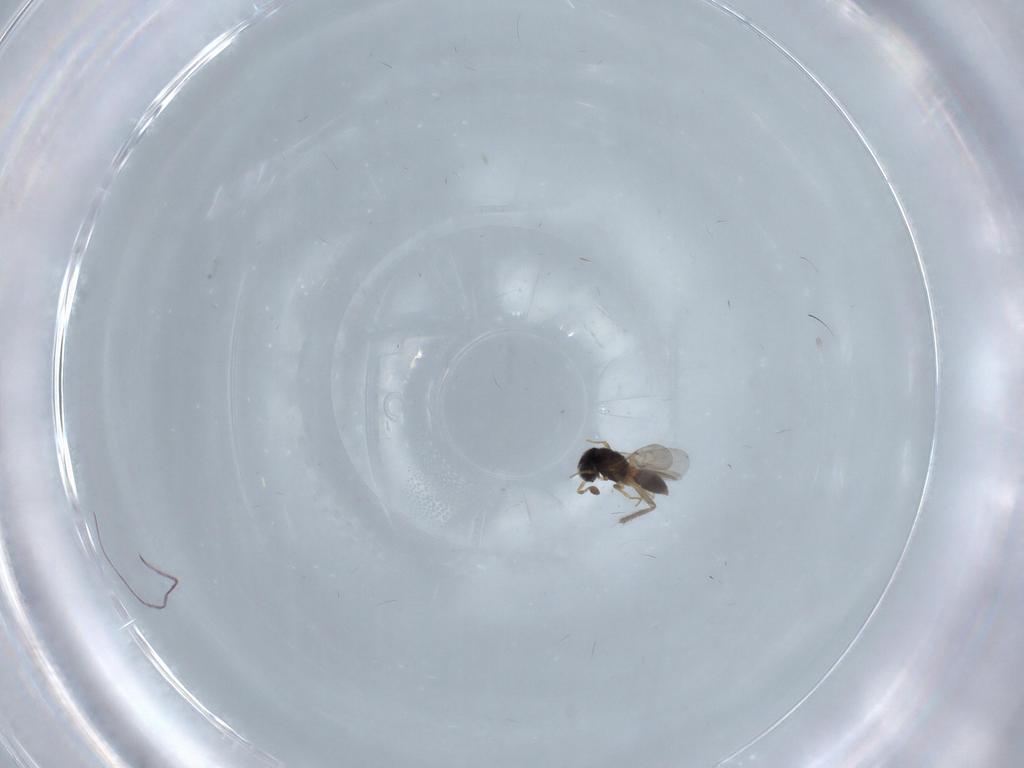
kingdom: Animalia
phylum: Arthropoda
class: Insecta
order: Hymenoptera
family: Scelionidae
